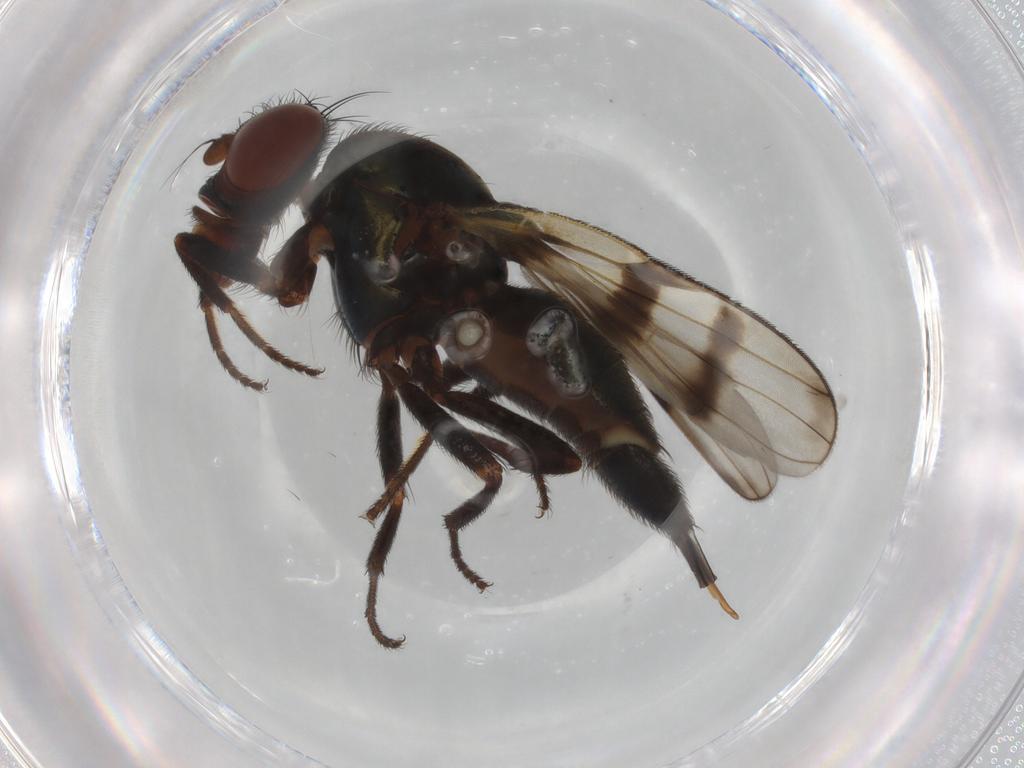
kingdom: Animalia
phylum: Arthropoda
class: Insecta
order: Diptera
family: Ulidiidae
